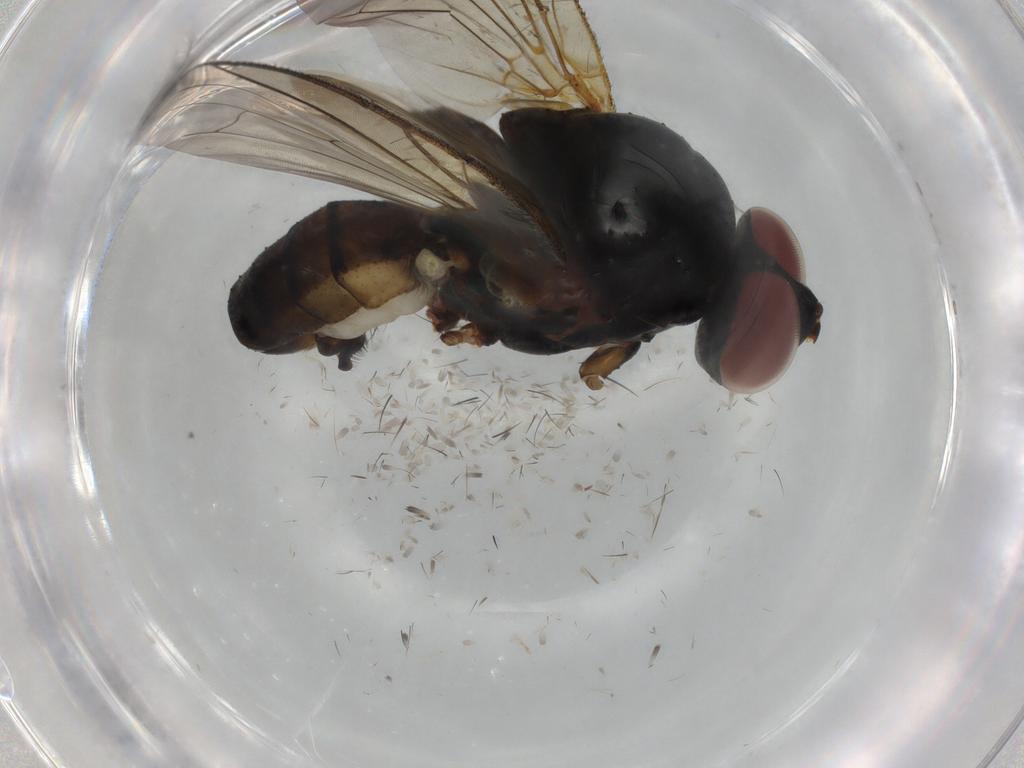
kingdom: Animalia
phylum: Arthropoda
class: Insecta
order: Diptera
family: Anthomyiidae
